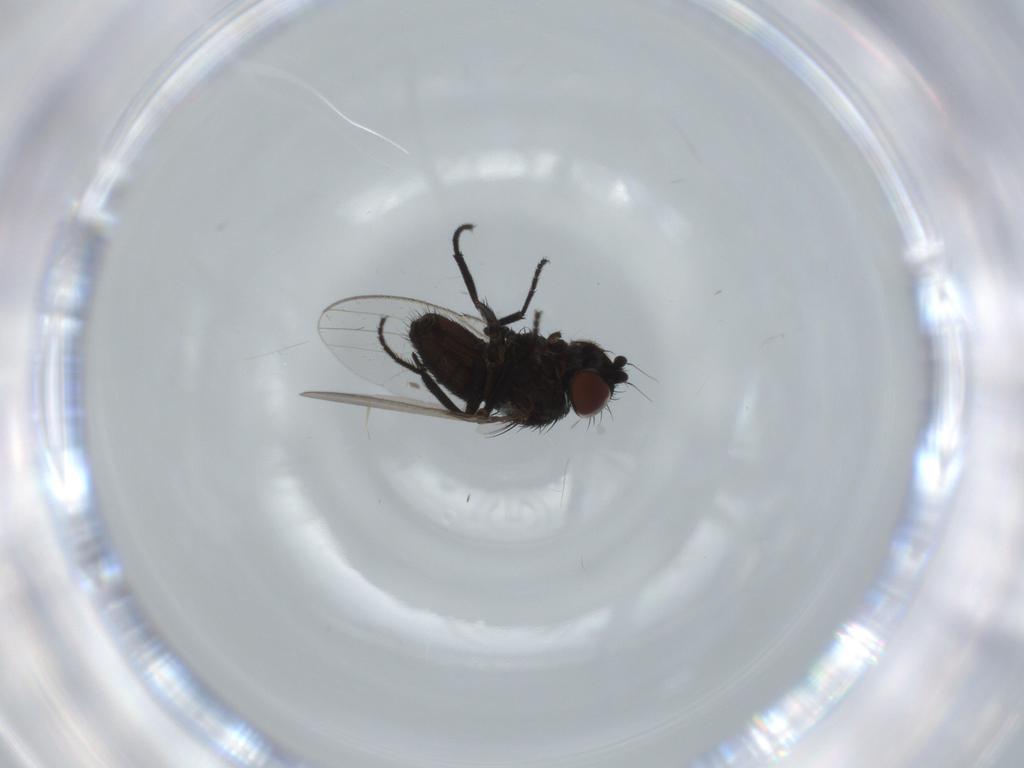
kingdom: Animalia
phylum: Arthropoda
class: Insecta
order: Diptera
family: Milichiidae
